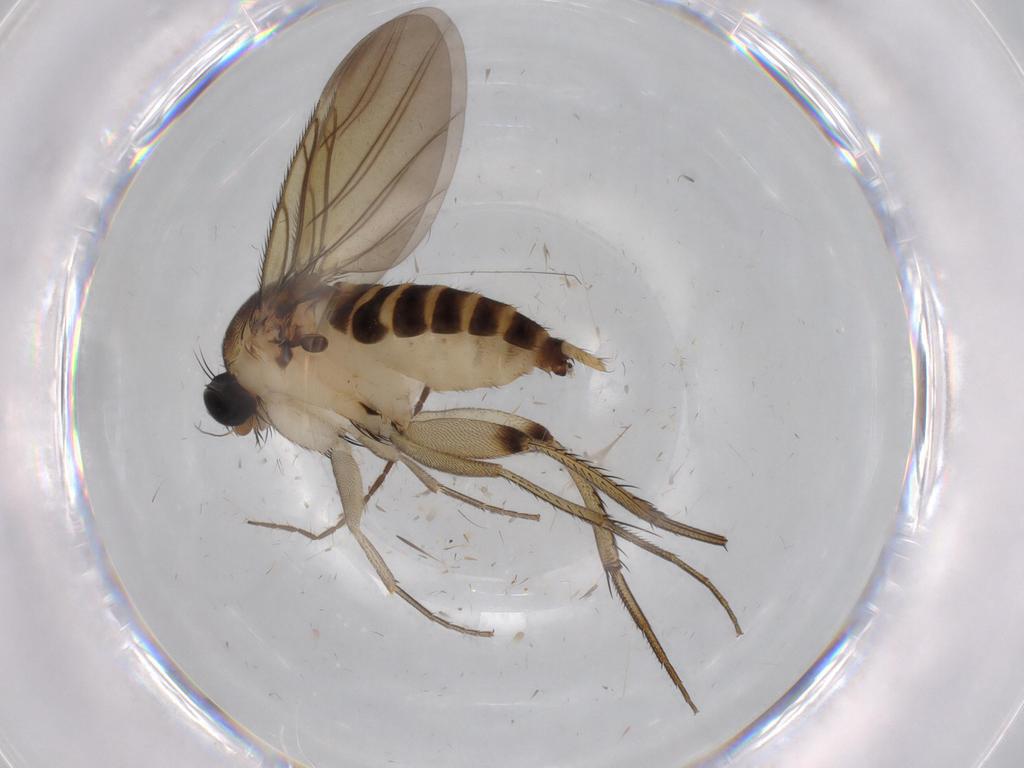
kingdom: Animalia
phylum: Arthropoda
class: Insecta
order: Diptera
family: Limoniidae
